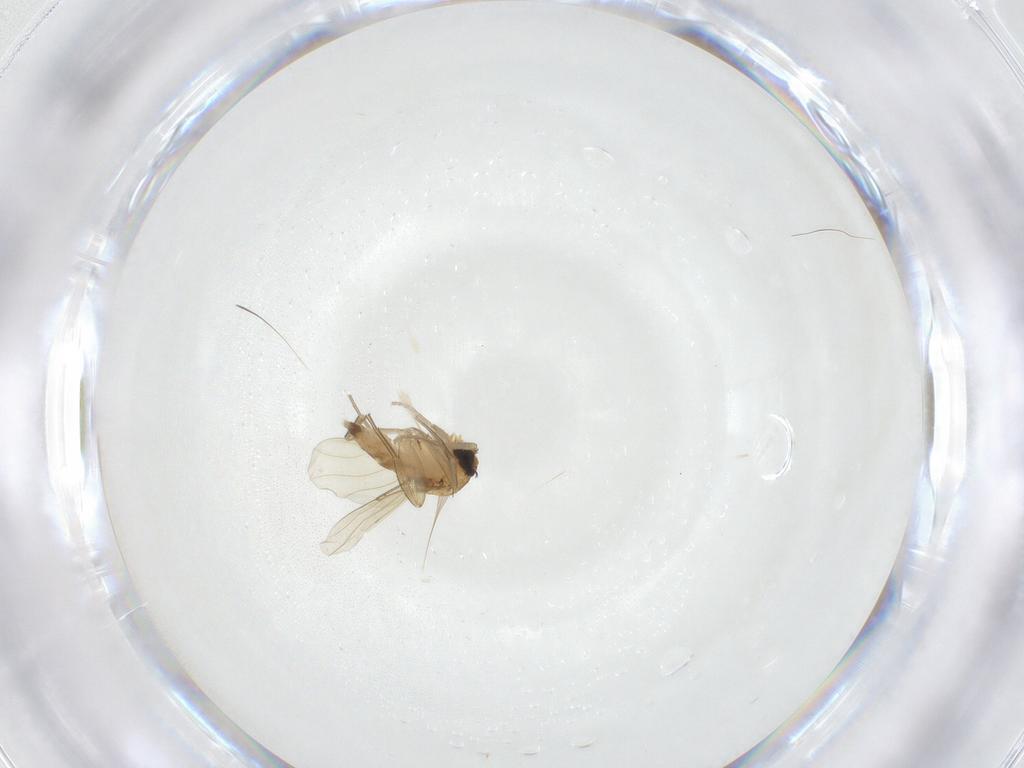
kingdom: Animalia
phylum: Arthropoda
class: Insecta
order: Diptera
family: Phoridae
